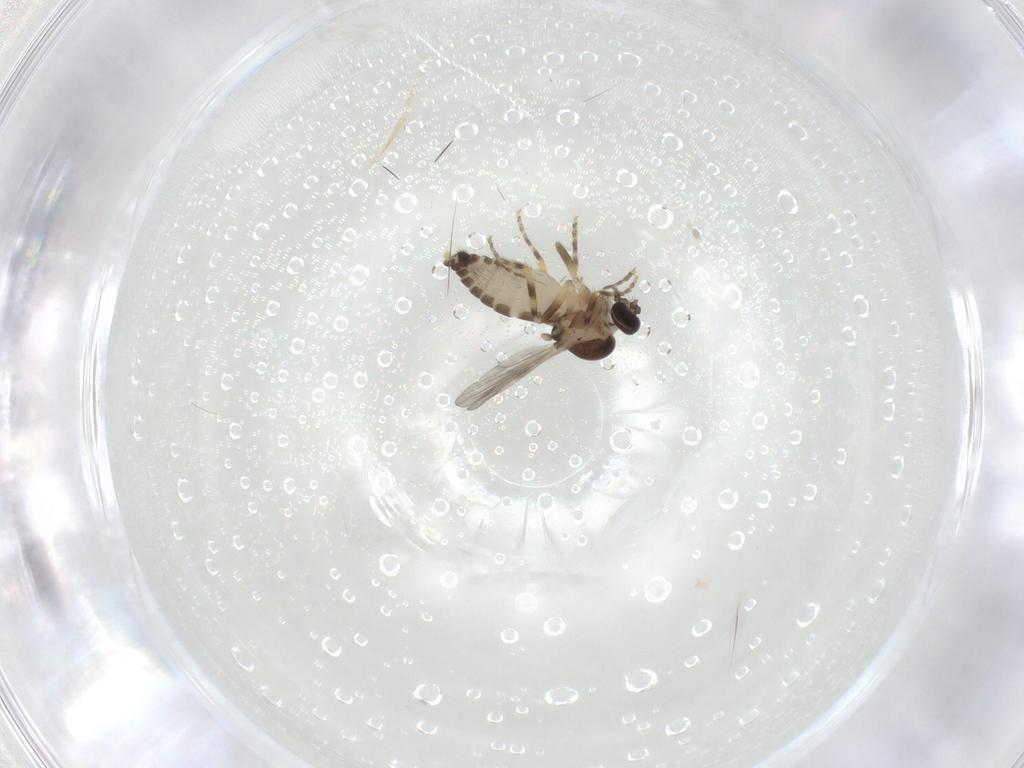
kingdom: Animalia
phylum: Arthropoda
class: Insecta
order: Diptera
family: Ceratopogonidae
